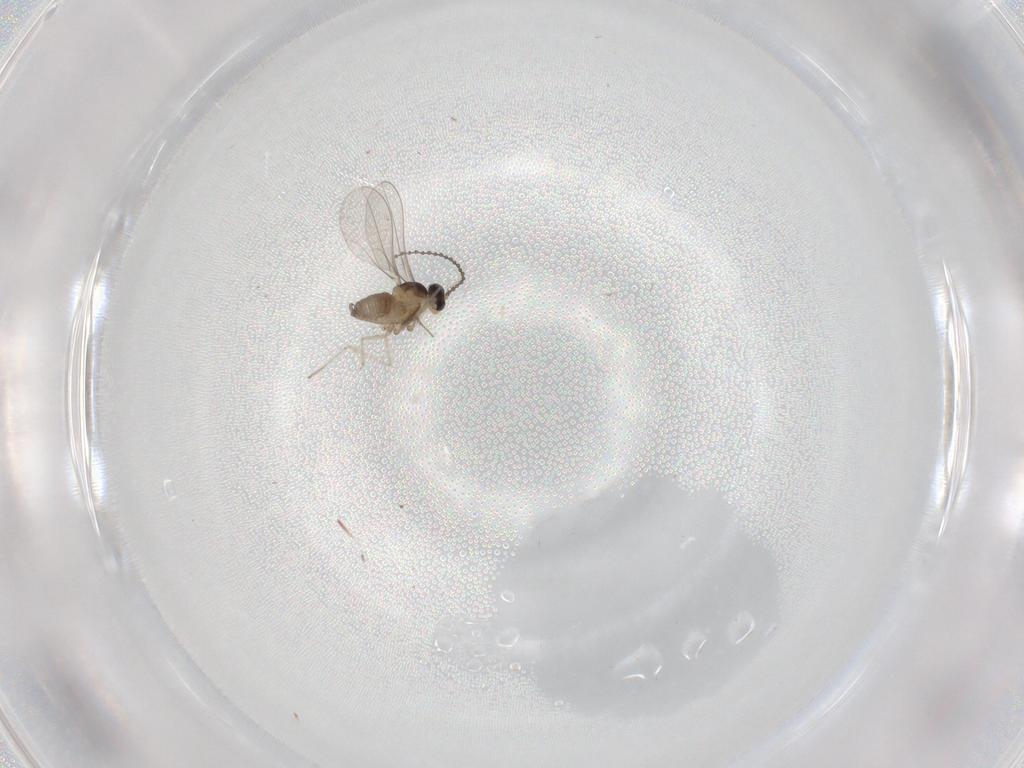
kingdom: Animalia
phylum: Arthropoda
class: Insecta
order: Diptera
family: Cecidomyiidae
